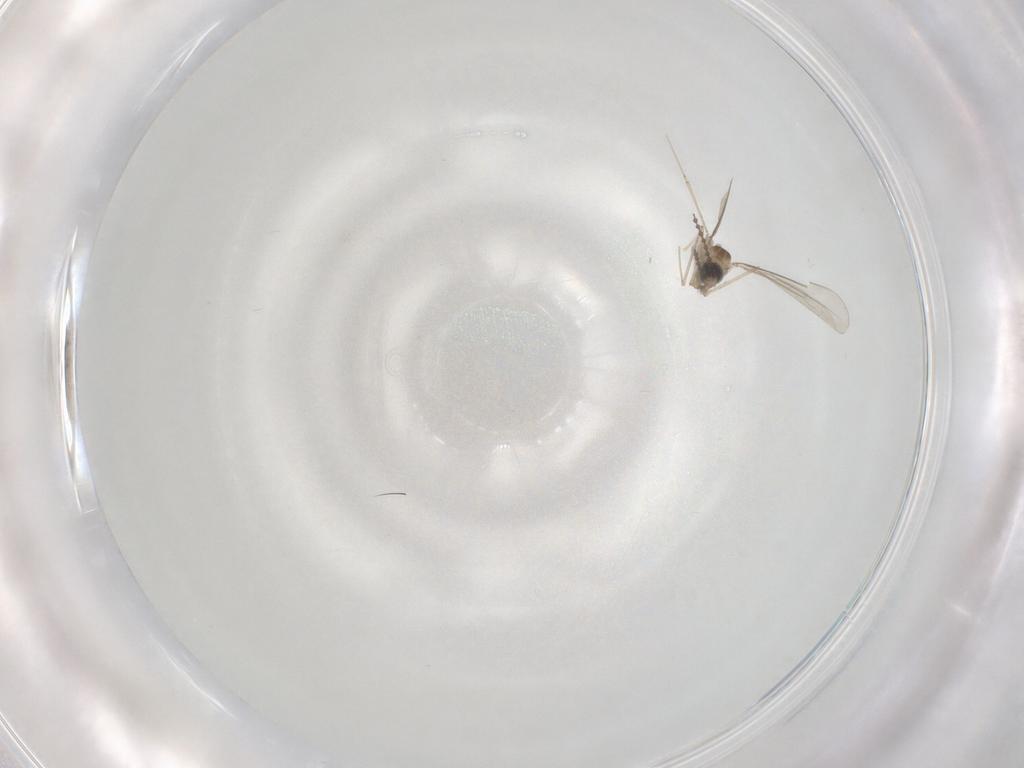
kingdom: Animalia
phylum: Arthropoda
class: Insecta
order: Diptera
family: Cecidomyiidae
